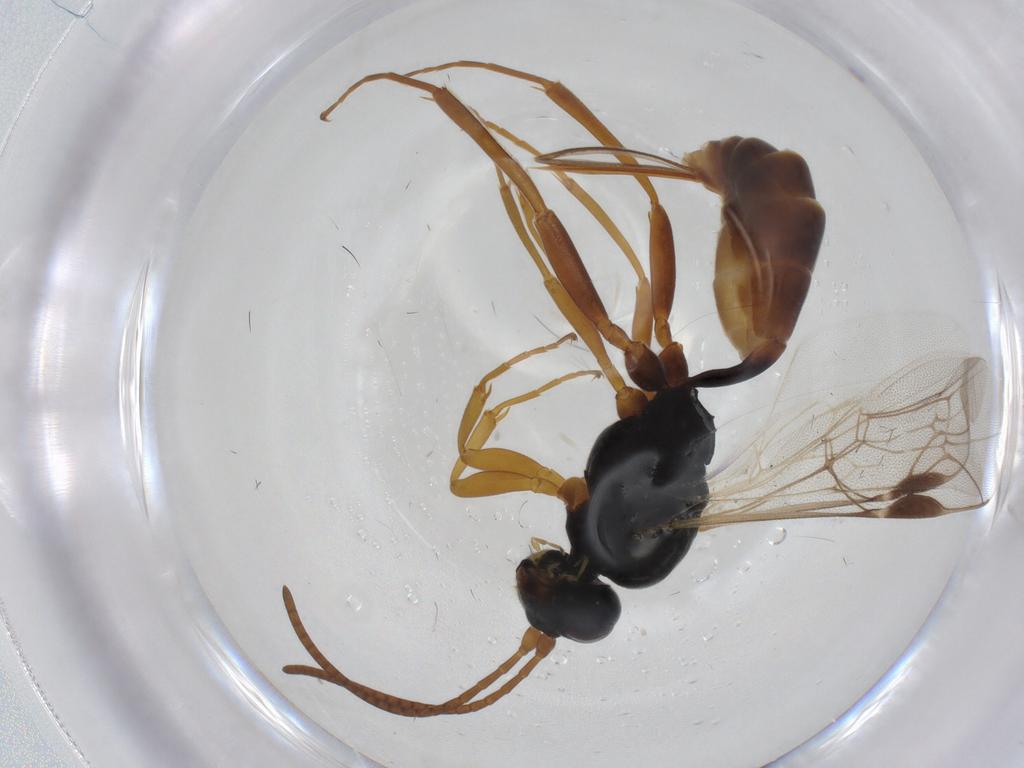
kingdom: Animalia
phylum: Arthropoda
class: Insecta
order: Hymenoptera
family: Ichneumonidae
